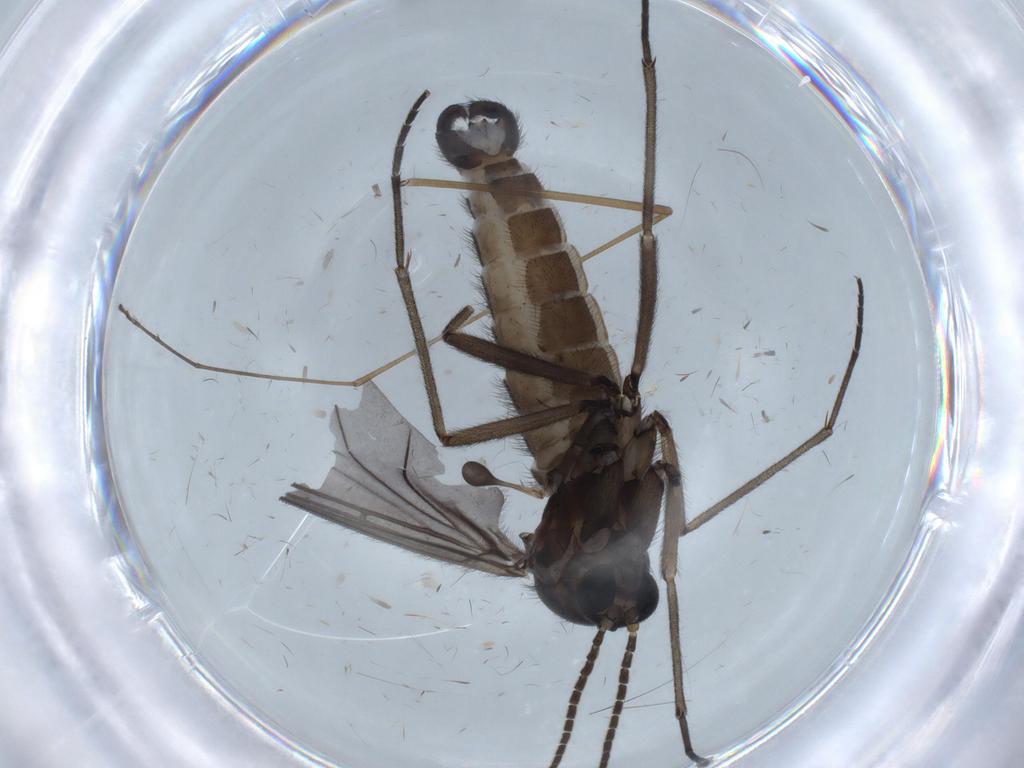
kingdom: Animalia
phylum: Arthropoda
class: Insecta
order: Diptera
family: Limoniidae
